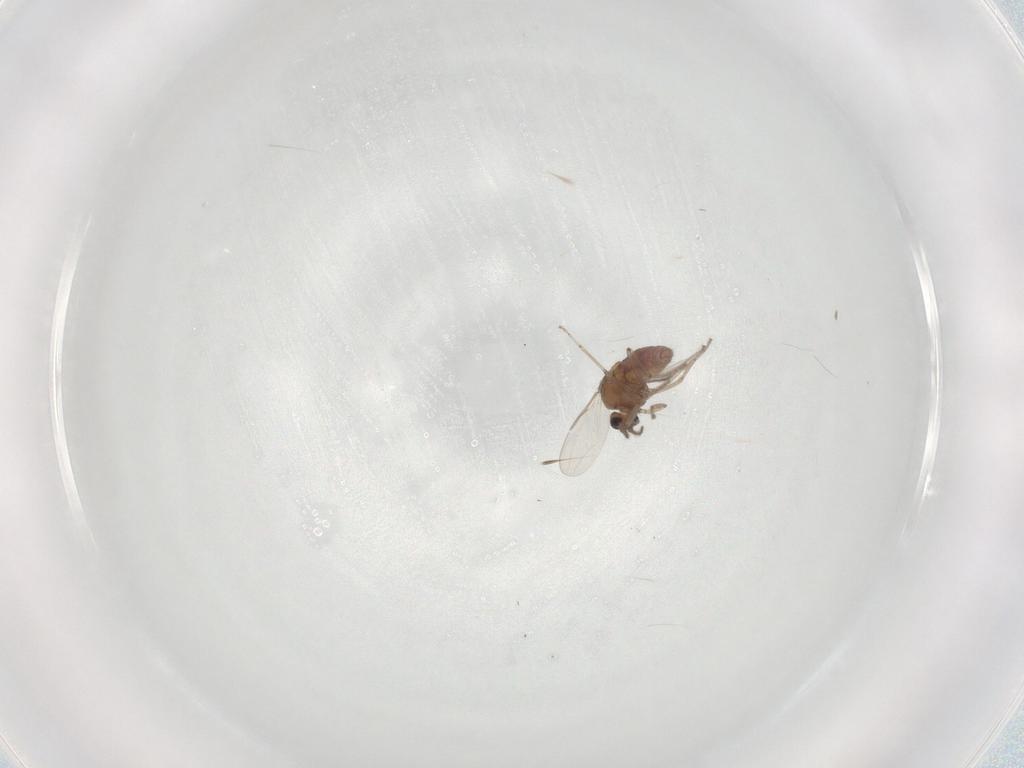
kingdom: Animalia
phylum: Arthropoda
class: Insecta
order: Diptera
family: Ceratopogonidae
